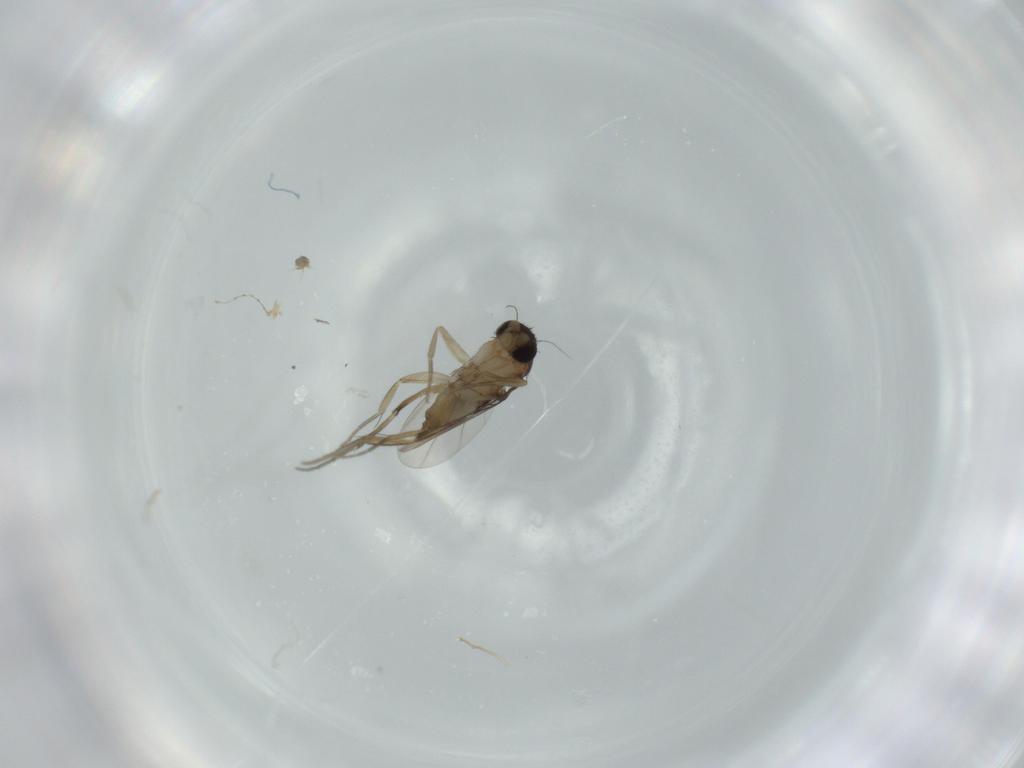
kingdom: Animalia
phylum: Arthropoda
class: Insecta
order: Diptera
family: Phoridae
